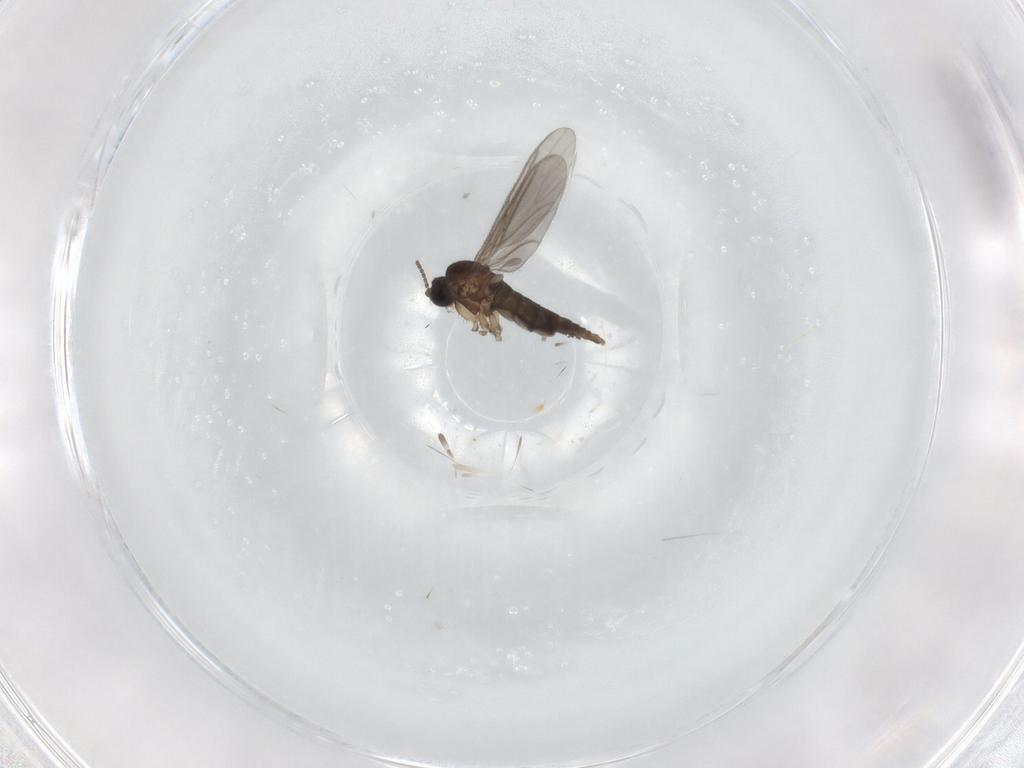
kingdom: Animalia
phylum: Arthropoda
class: Insecta
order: Diptera
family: Sciaridae
